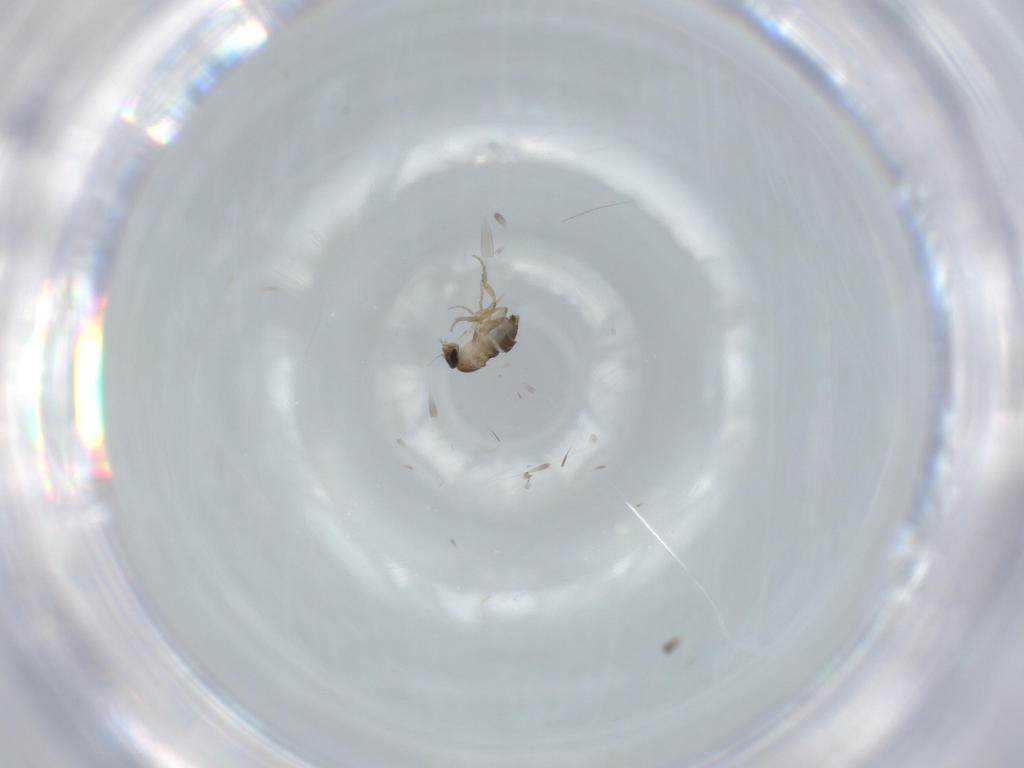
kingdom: Animalia
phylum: Arthropoda
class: Insecta
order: Diptera
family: Phoridae
